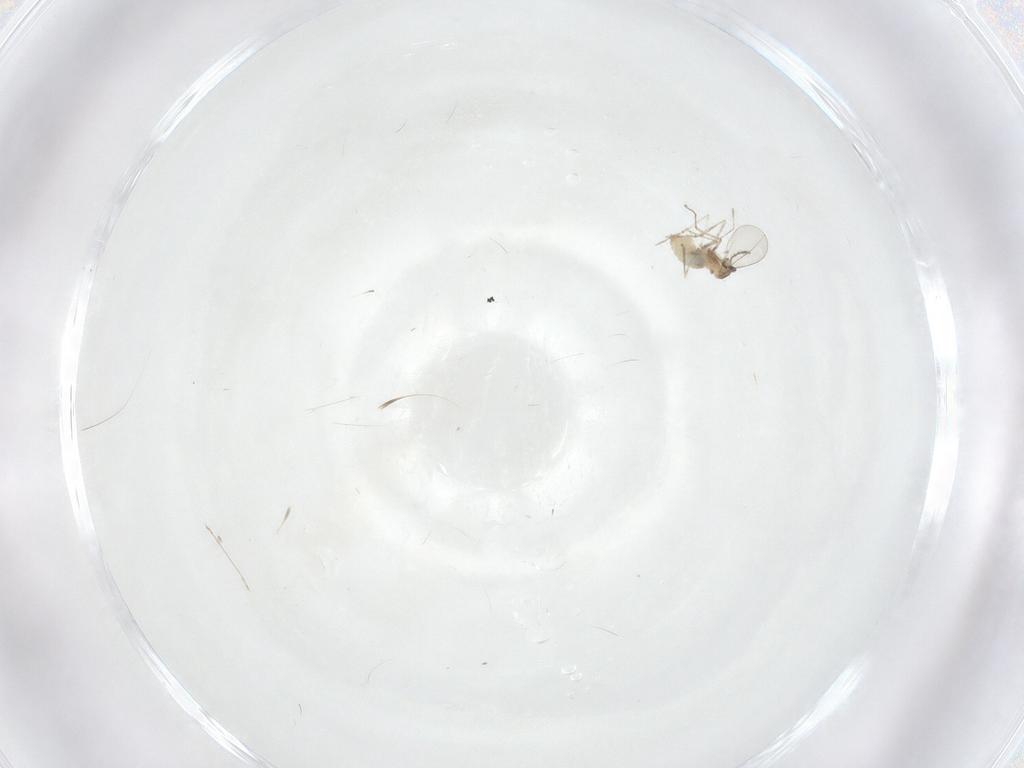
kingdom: Animalia
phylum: Arthropoda
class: Insecta
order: Diptera
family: Cecidomyiidae
